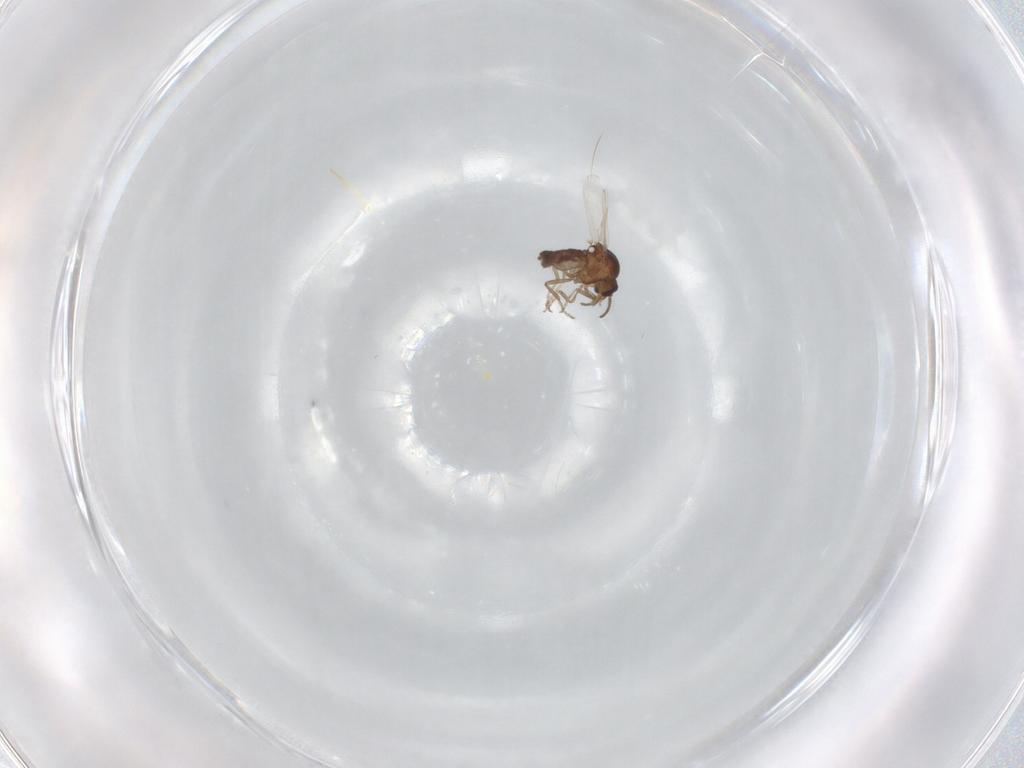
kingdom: Animalia
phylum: Arthropoda
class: Insecta
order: Diptera
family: Ceratopogonidae
